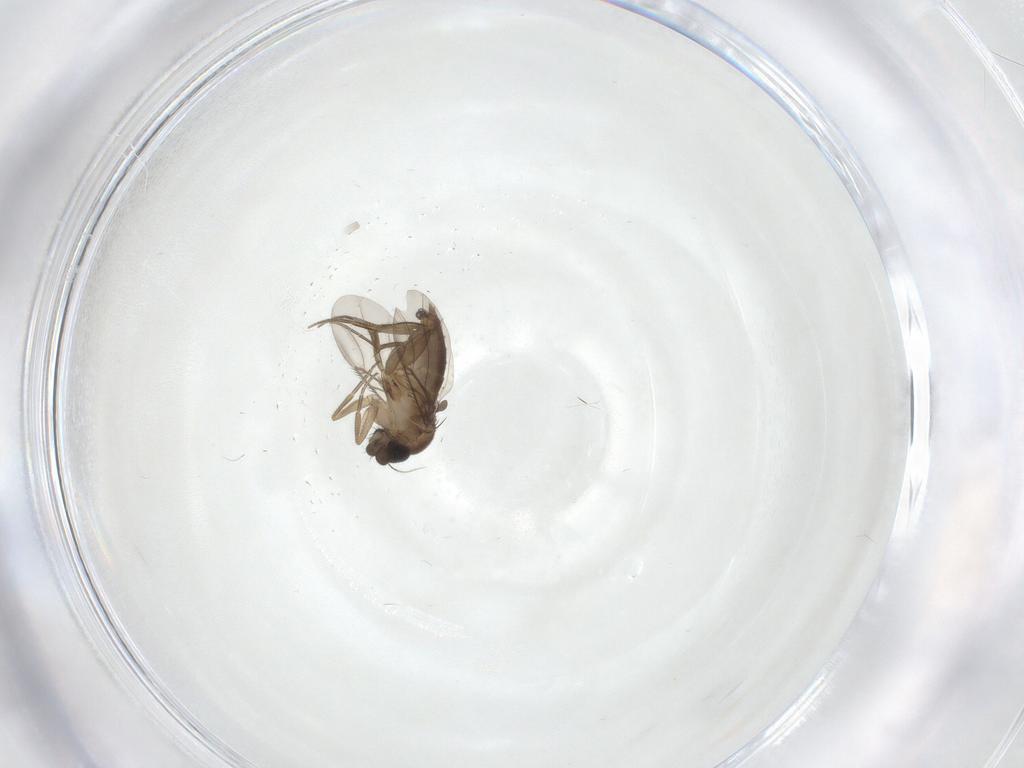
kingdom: Animalia
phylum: Arthropoda
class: Insecta
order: Diptera
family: Phoridae
